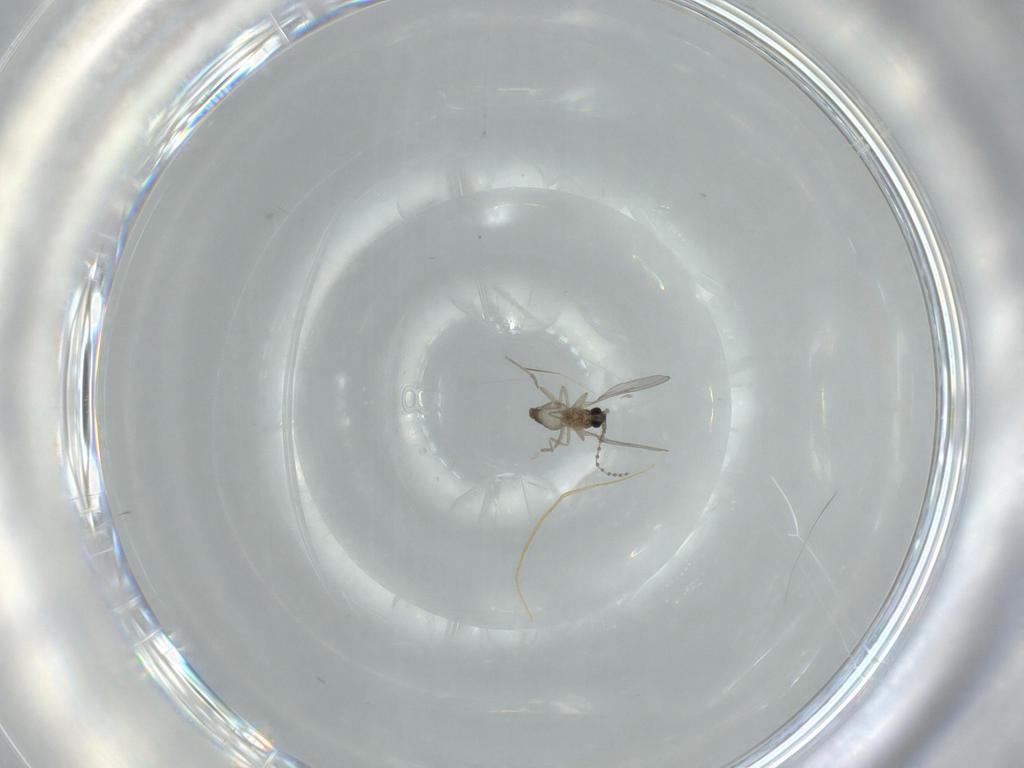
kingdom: Animalia
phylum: Arthropoda
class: Insecta
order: Diptera
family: Cecidomyiidae
